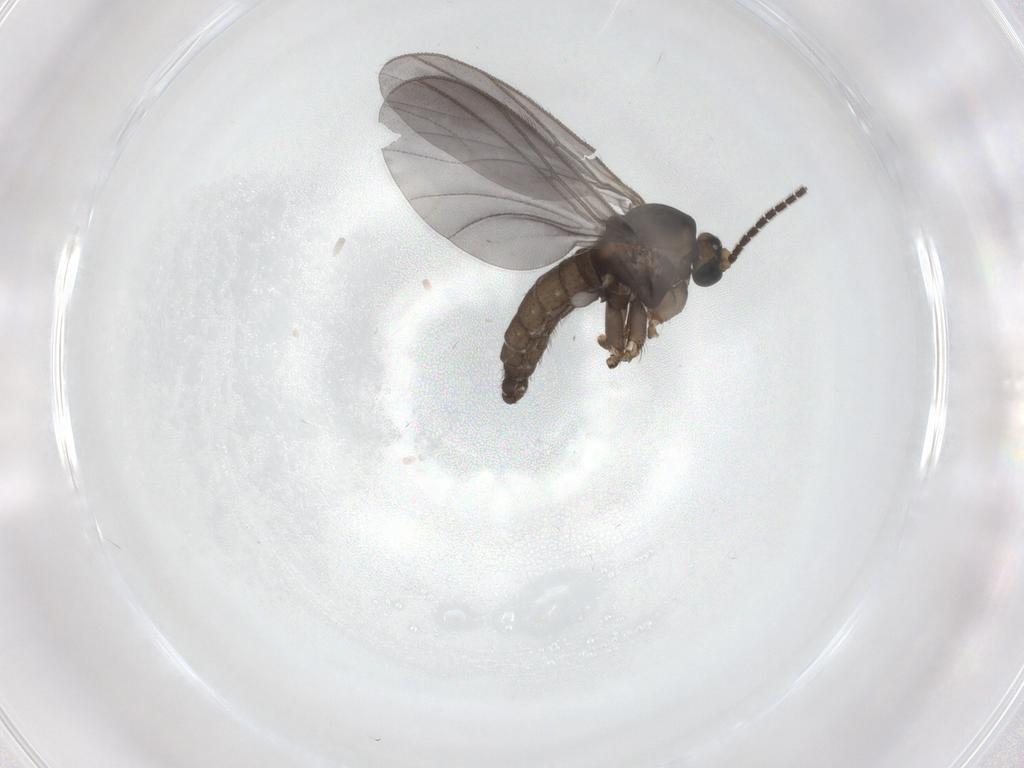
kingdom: Animalia
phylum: Arthropoda
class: Insecta
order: Diptera
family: Sciaridae
